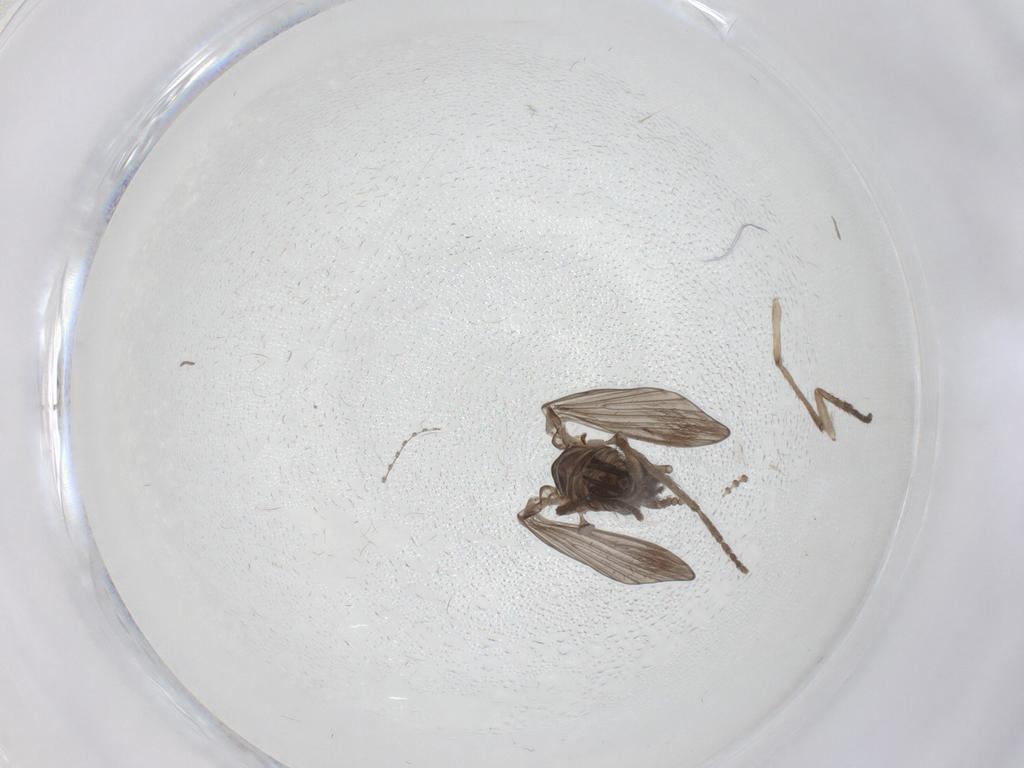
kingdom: Animalia
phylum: Arthropoda
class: Insecta
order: Diptera
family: Psychodidae
